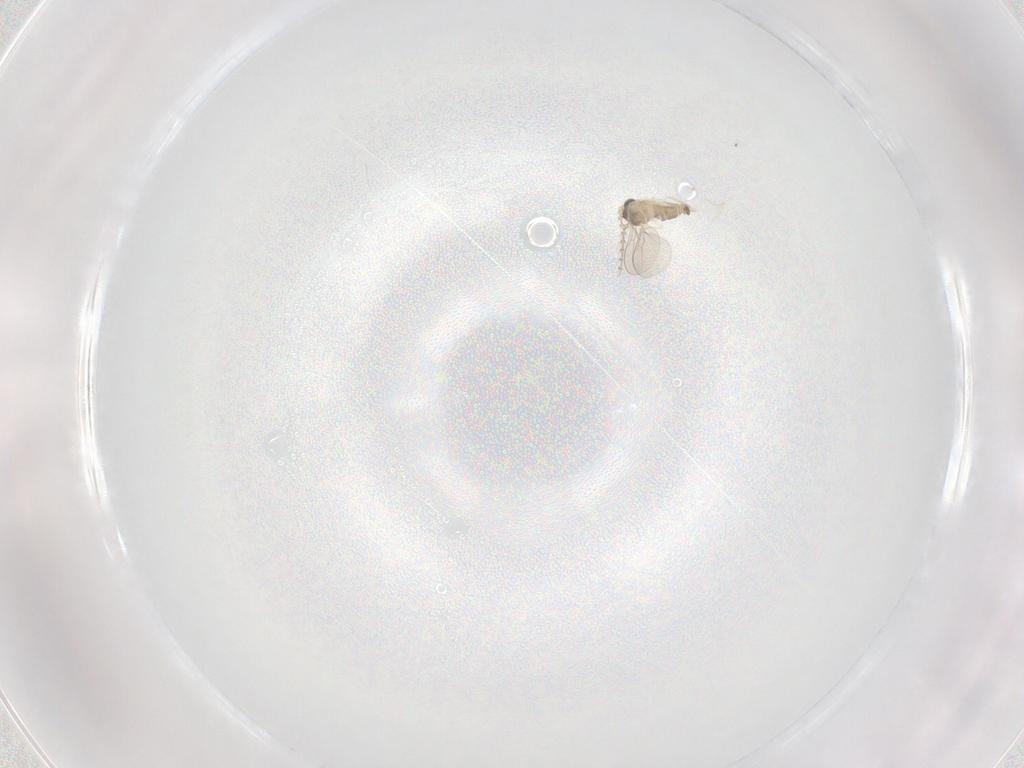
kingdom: Animalia
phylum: Arthropoda
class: Insecta
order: Diptera
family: Cecidomyiidae
